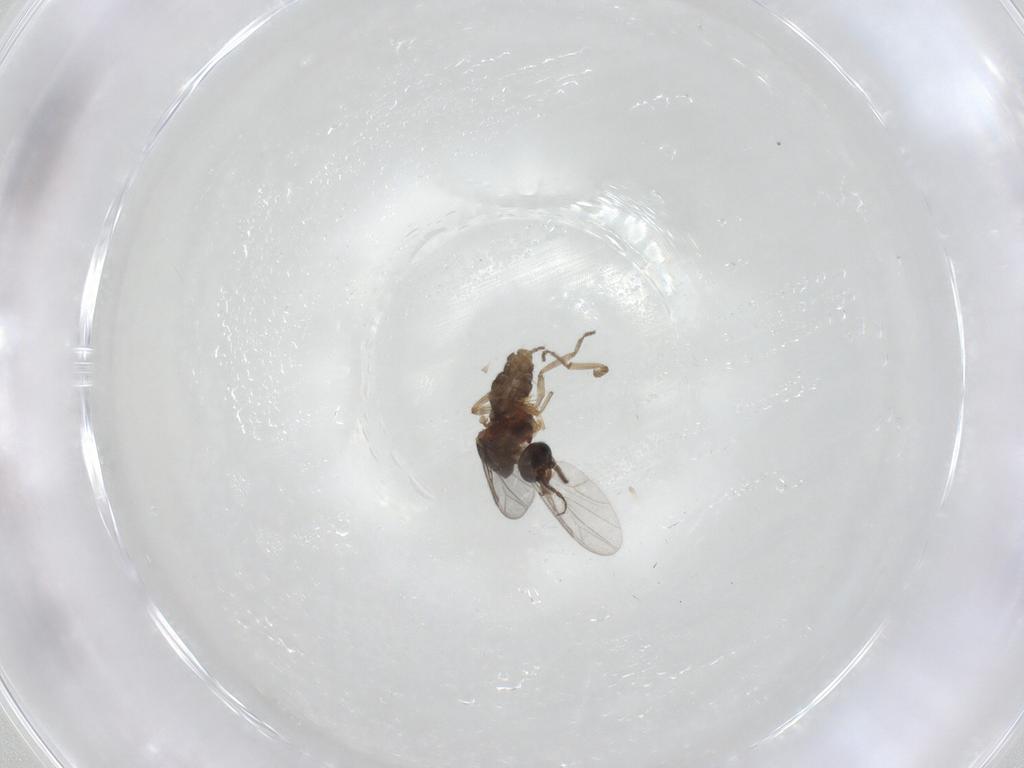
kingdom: Animalia
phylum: Arthropoda
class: Insecta
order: Diptera
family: Ceratopogonidae
